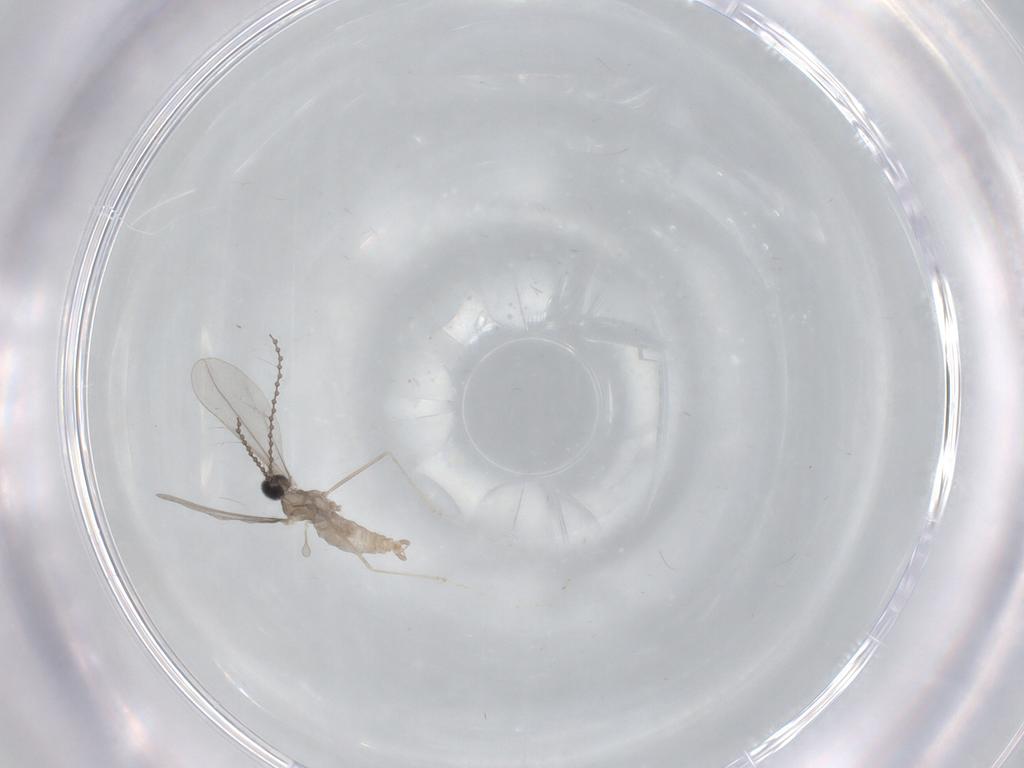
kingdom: Animalia
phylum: Arthropoda
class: Insecta
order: Diptera
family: Cecidomyiidae
